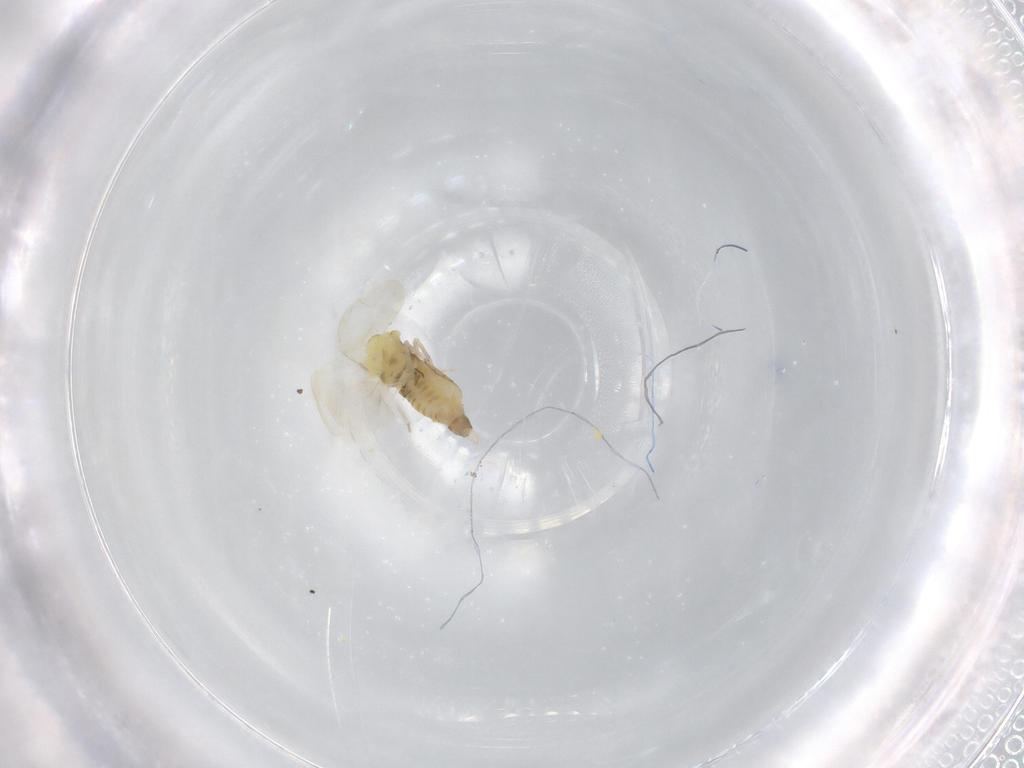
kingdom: Animalia
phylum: Arthropoda
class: Insecta
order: Hemiptera
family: Aleyrodidae
